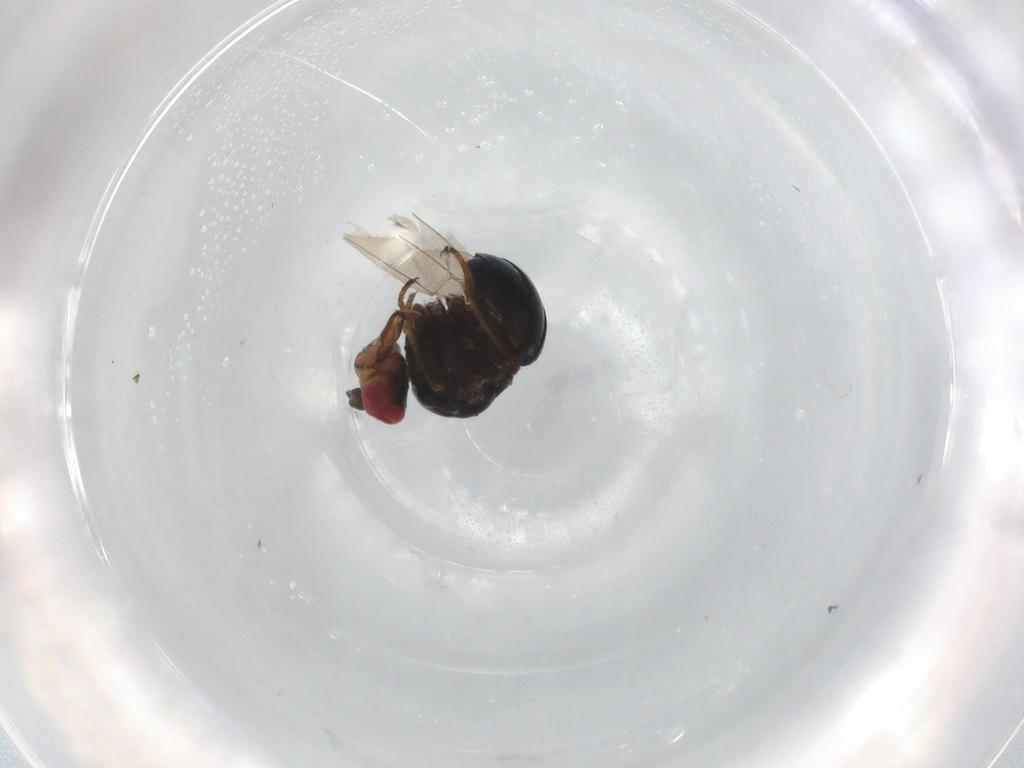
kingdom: Animalia
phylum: Arthropoda
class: Insecta
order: Diptera
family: Ephydridae
